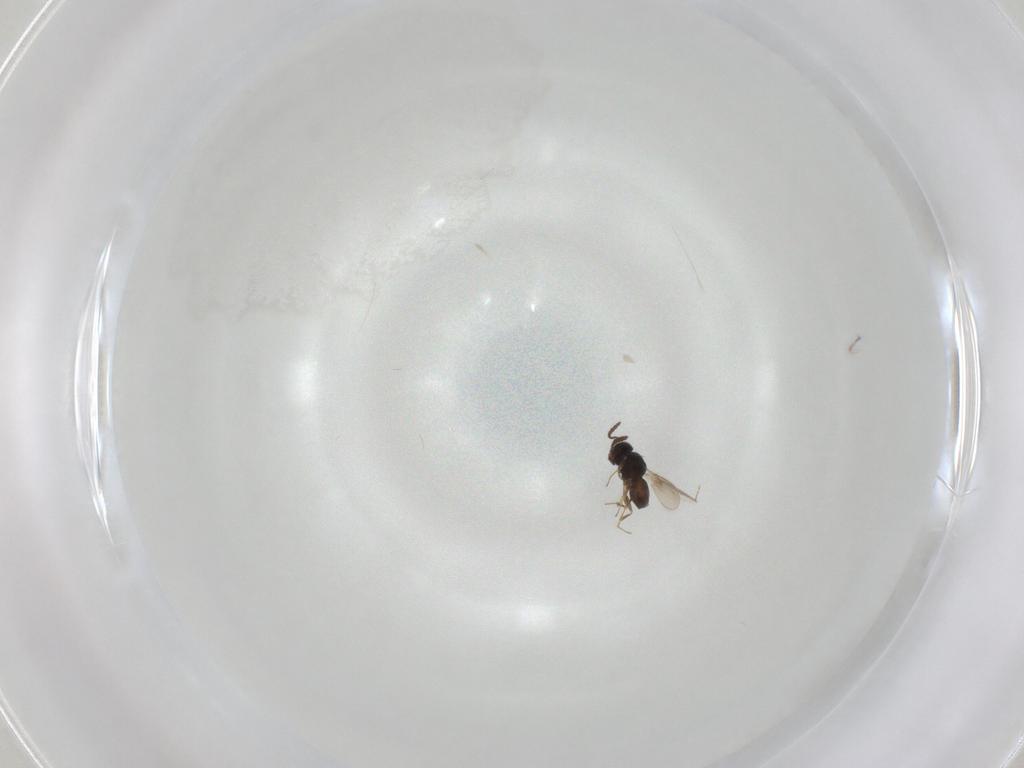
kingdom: Animalia
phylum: Arthropoda
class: Insecta
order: Hymenoptera
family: Scelionidae
